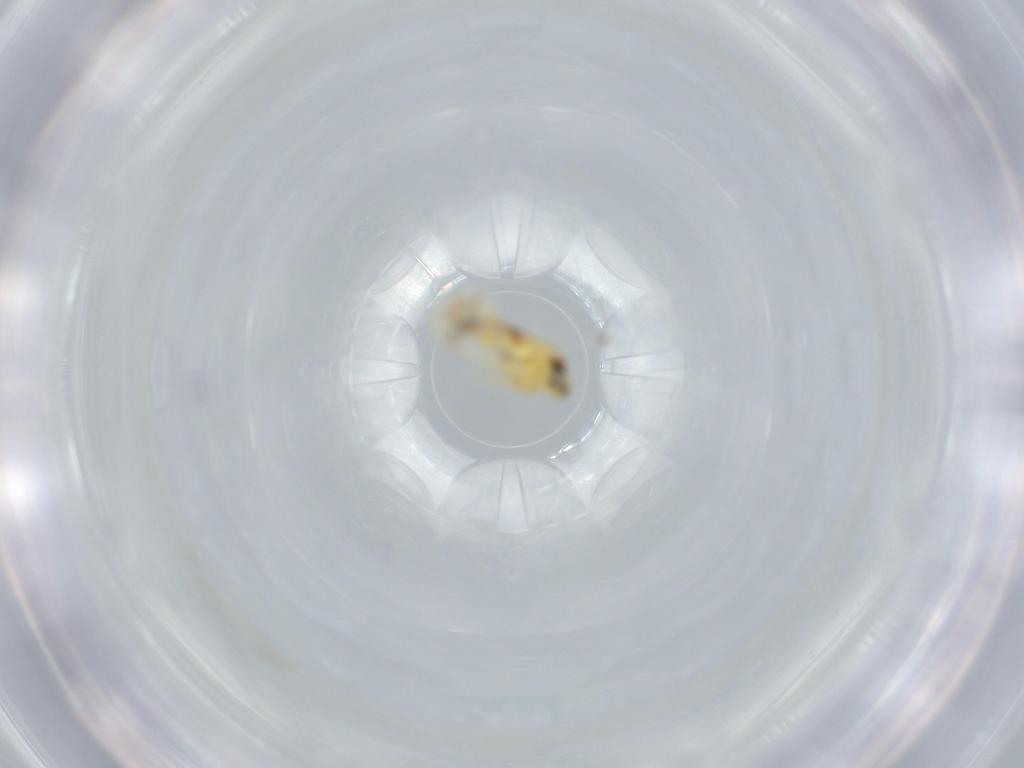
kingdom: Animalia
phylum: Arthropoda
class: Insecta
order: Hemiptera
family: Aleyrodidae
